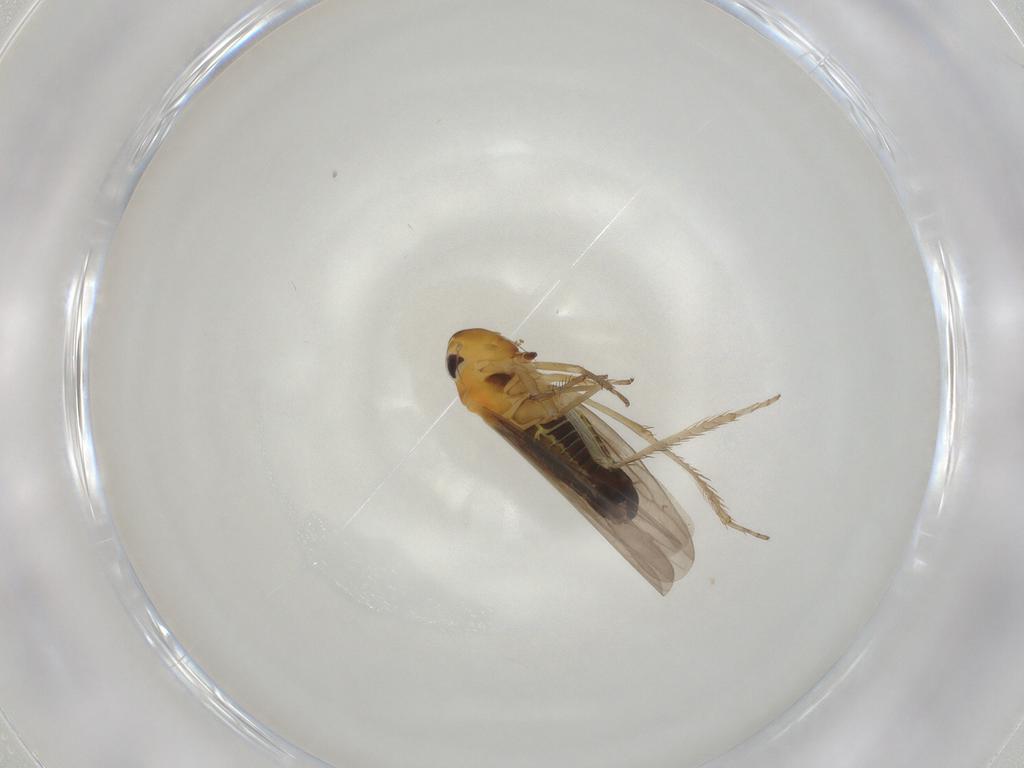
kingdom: Animalia
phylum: Arthropoda
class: Insecta
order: Hemiptera
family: Cicadellidae
